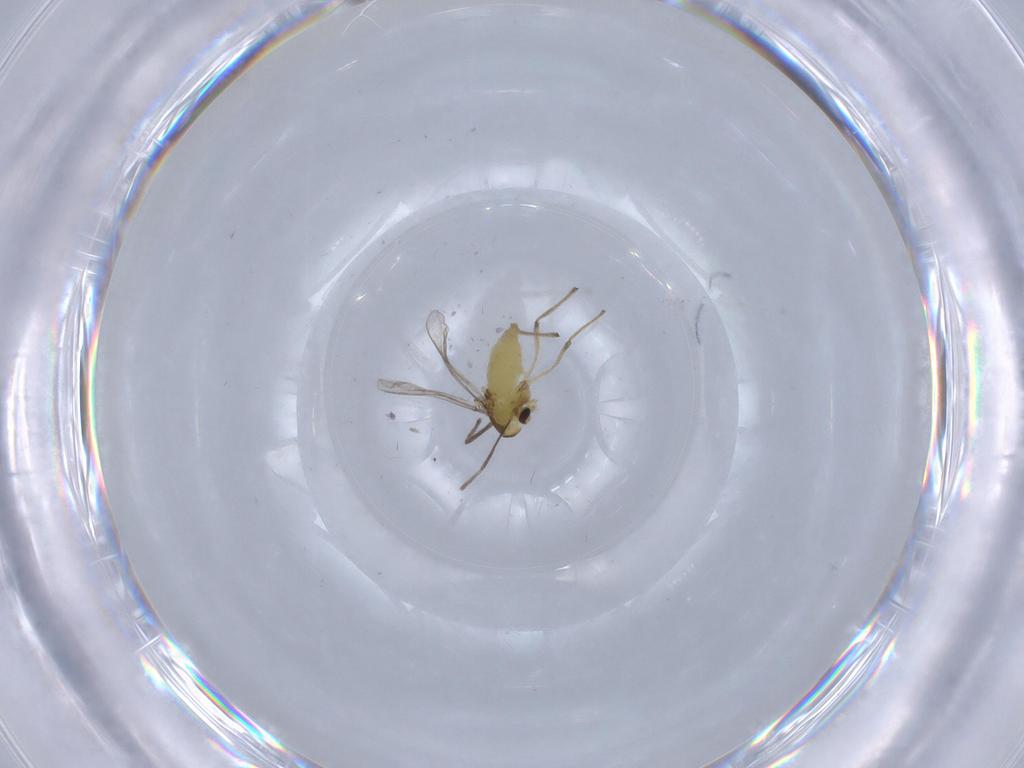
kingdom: Animalia
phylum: Arthropoda
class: Insecta
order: Diptera
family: Chironomidae
